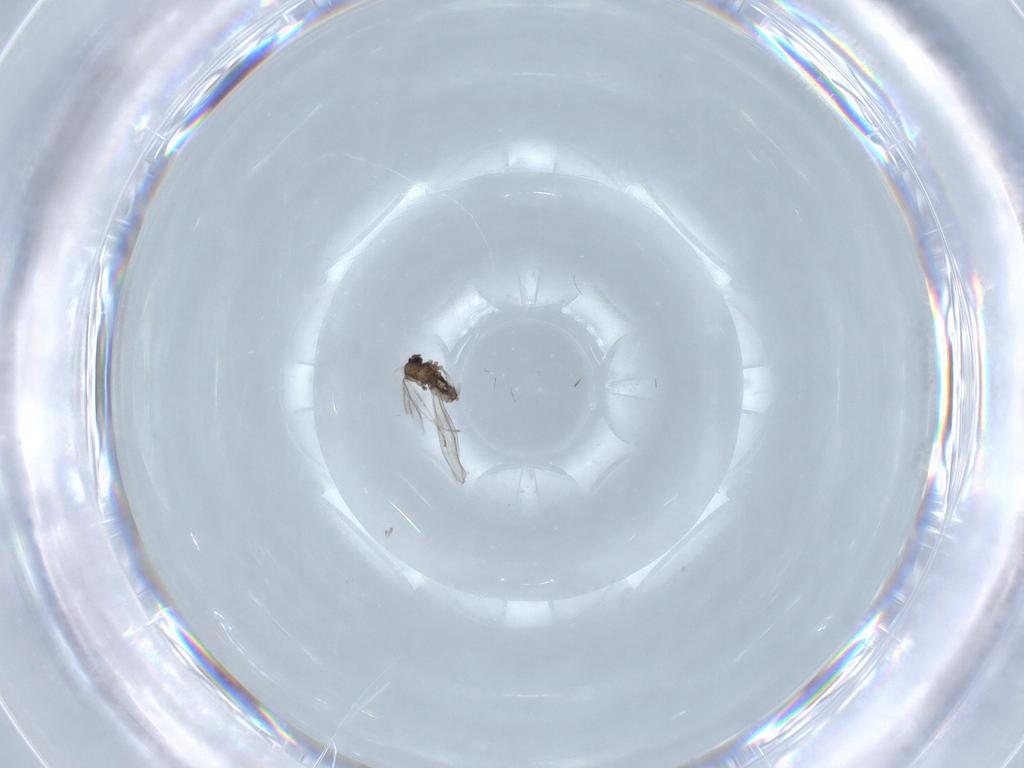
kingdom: Animalia
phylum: Arthropoda
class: Insecta
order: Diptera
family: Cecidomyiidae
